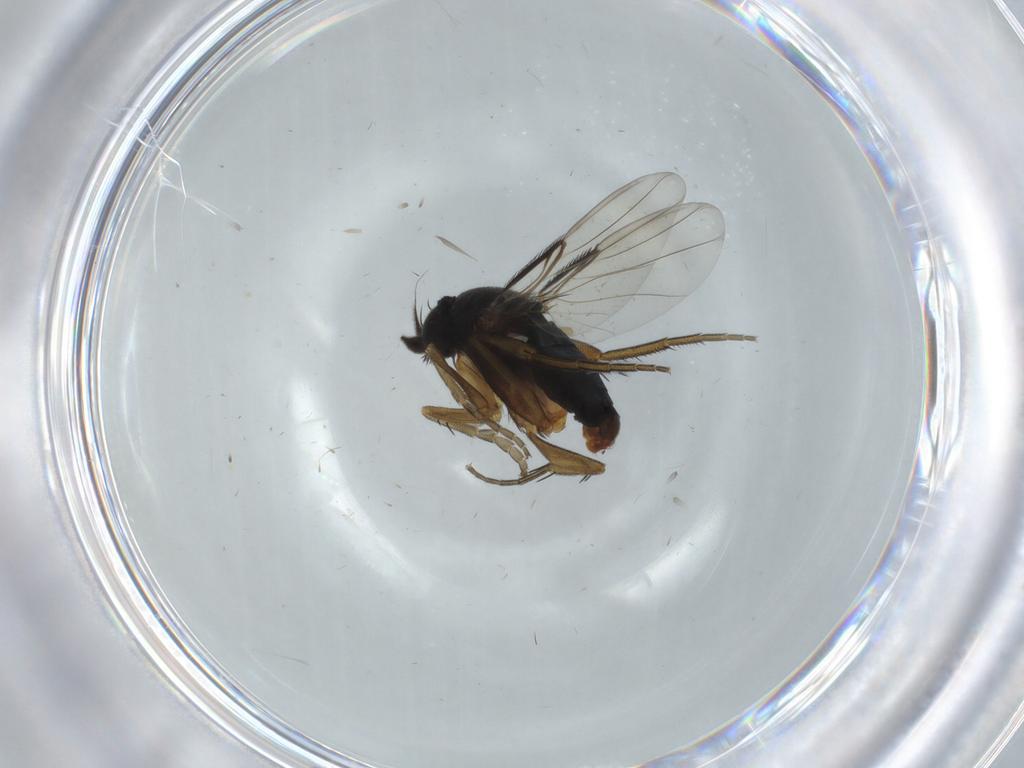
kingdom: Animalia
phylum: Arthropoda
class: Insecta
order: Diptera
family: Phoridae
